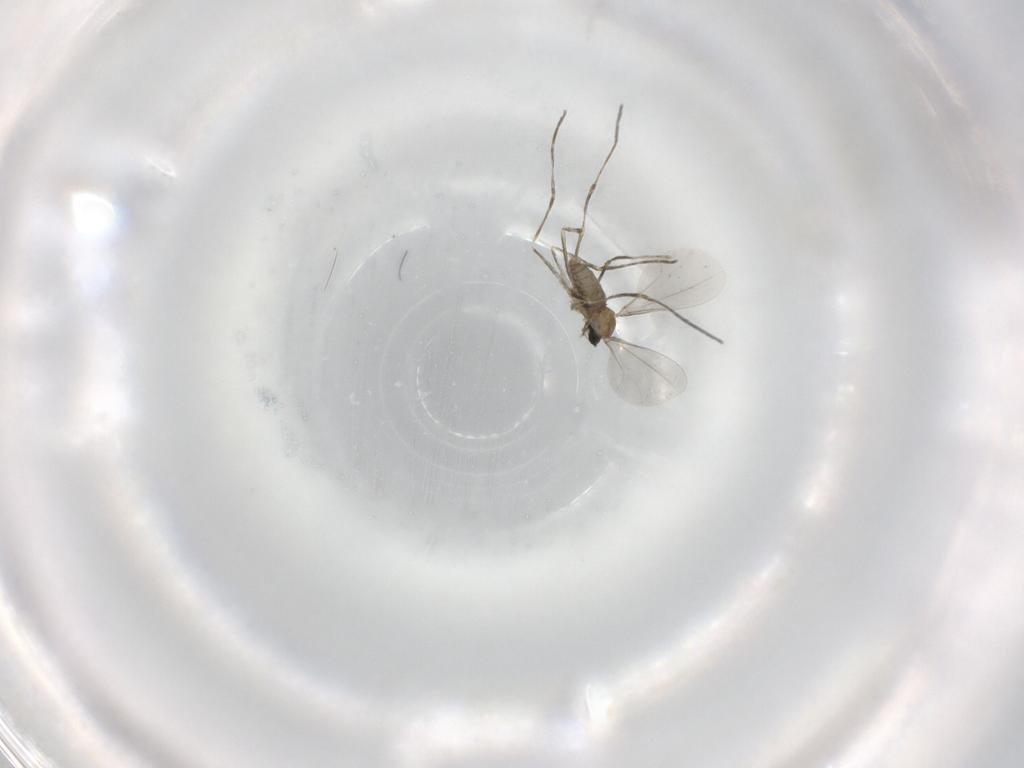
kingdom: Animalia
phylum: Arthropoda
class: Insecta
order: Diptera
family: Cecidomyiidae
